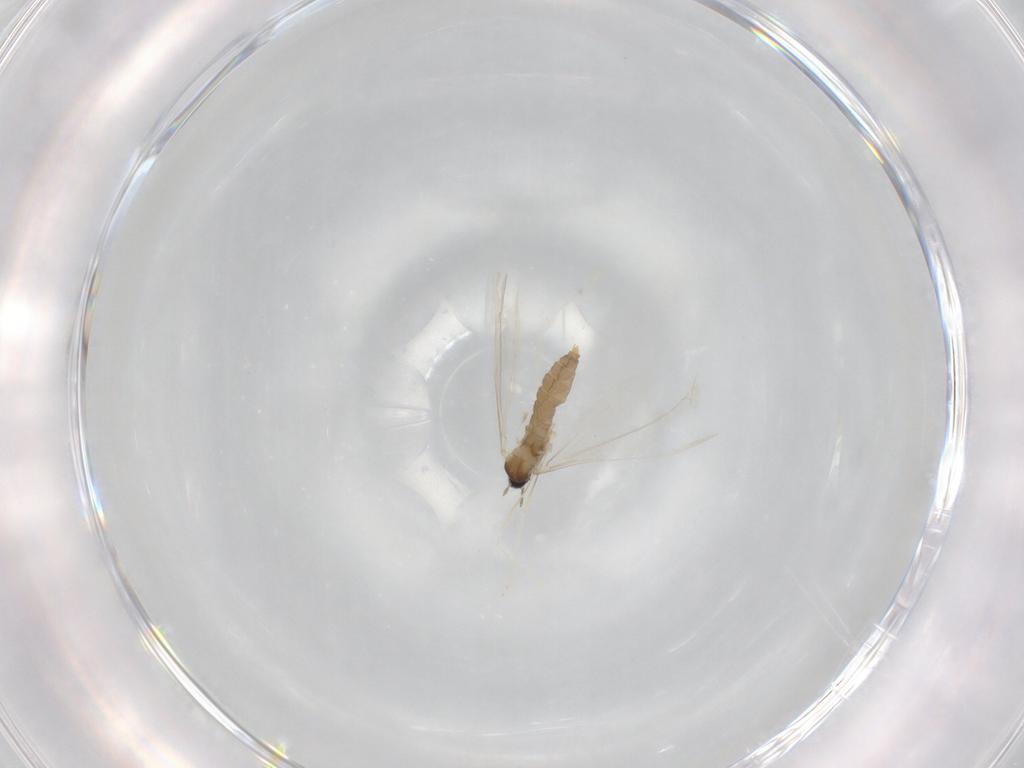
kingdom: Animalia
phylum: Arthropoda
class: Insecta
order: Diptera
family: Cecidomyiidae
